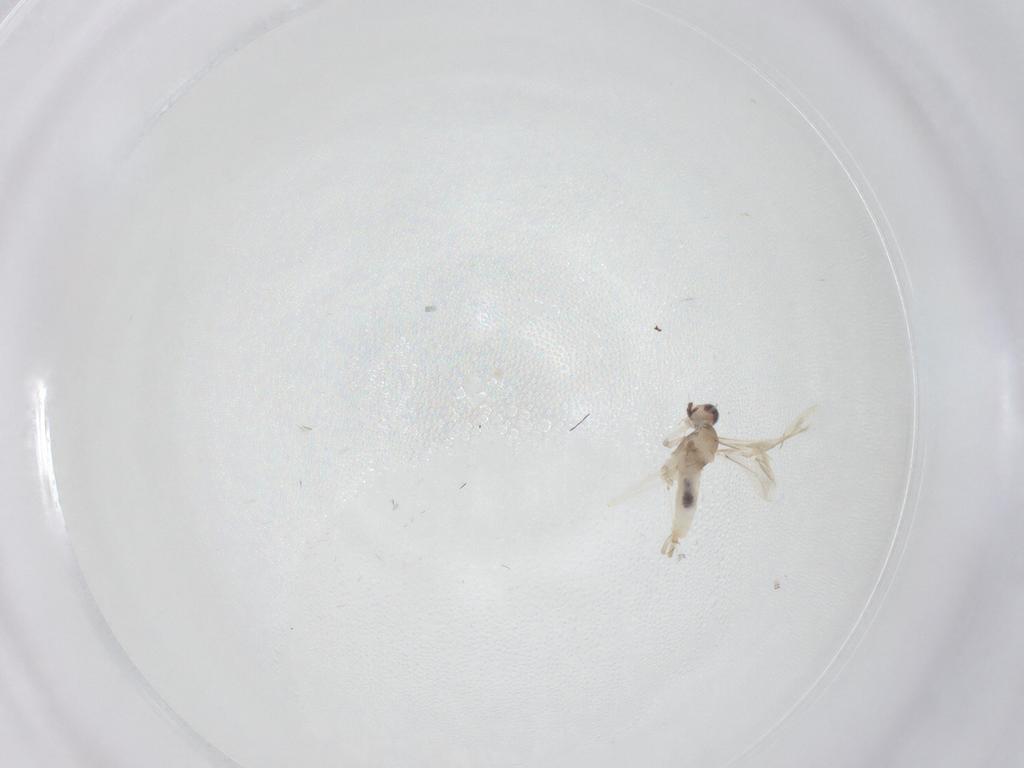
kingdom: Animalia
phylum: Arthropoda
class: Insecta
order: Diptera
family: Cecidomyiidae
